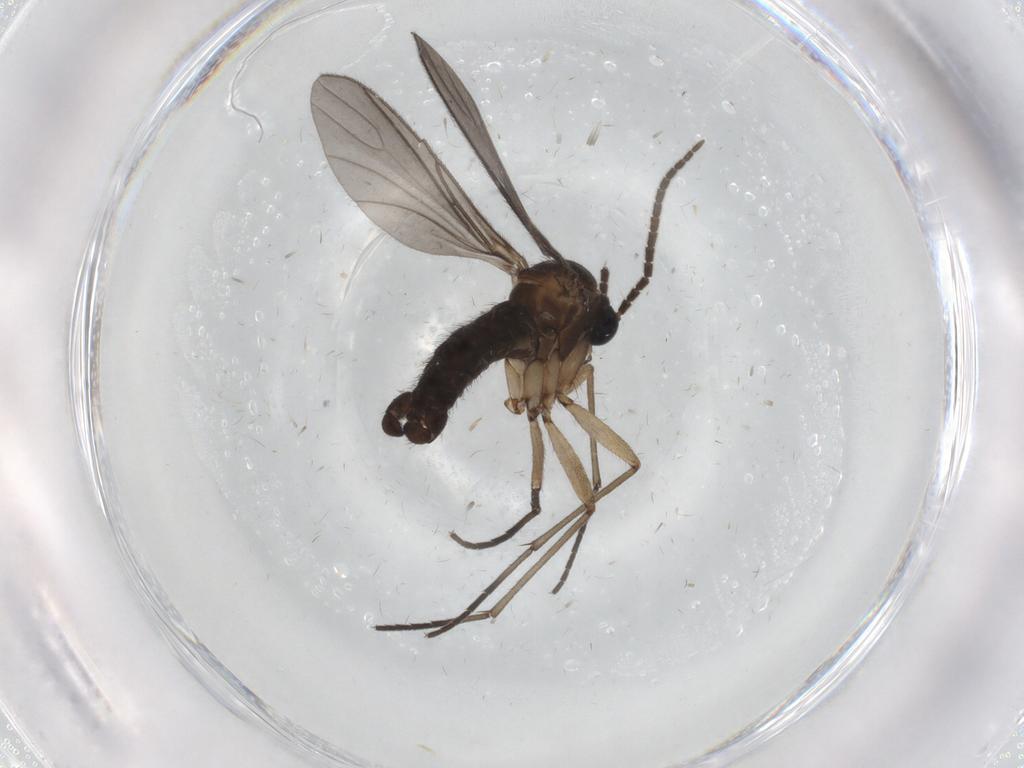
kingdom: Animalia
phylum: Arthropoda
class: Insecta
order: Diptera
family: Sciaridae
